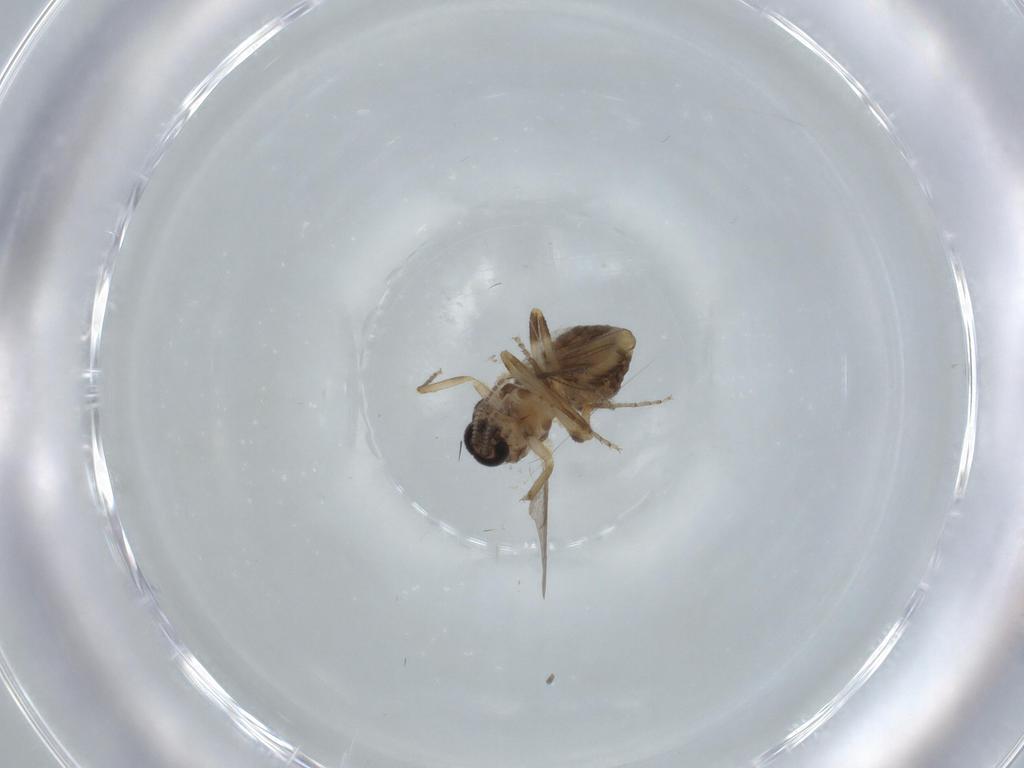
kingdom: Animalia
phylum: Arthropoda
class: Insecta
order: Diptera
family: Ceratopogonidae
